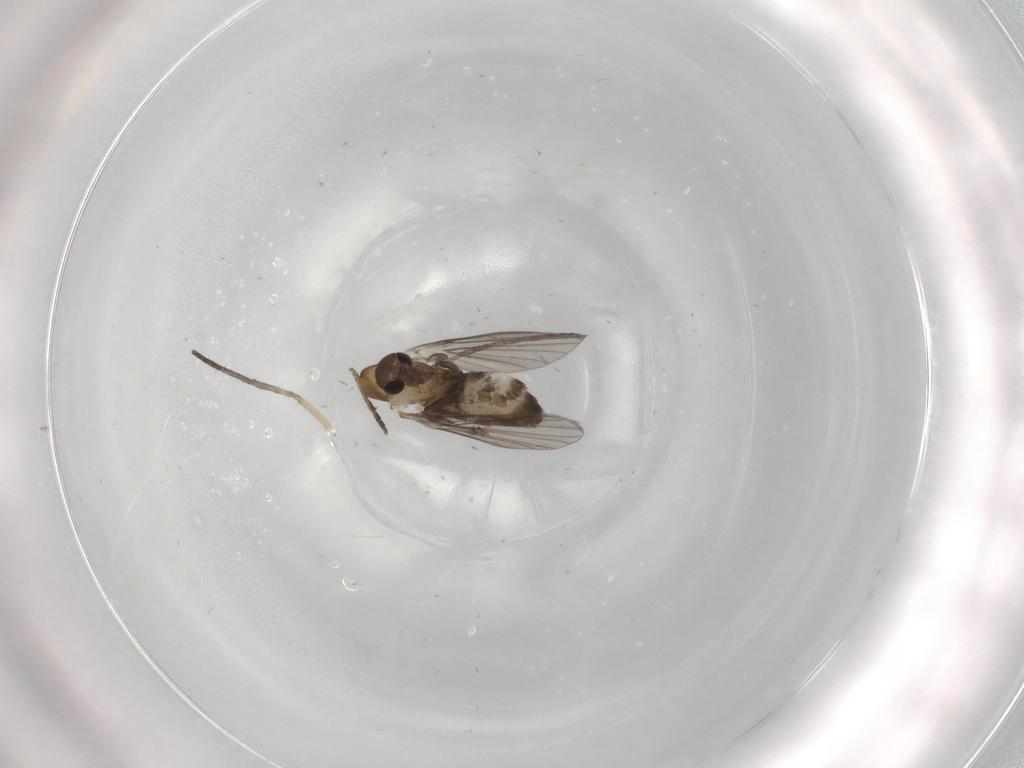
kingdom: Animalia
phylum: Arthropoda
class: Insecta
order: Diptera
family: Psychodidae
